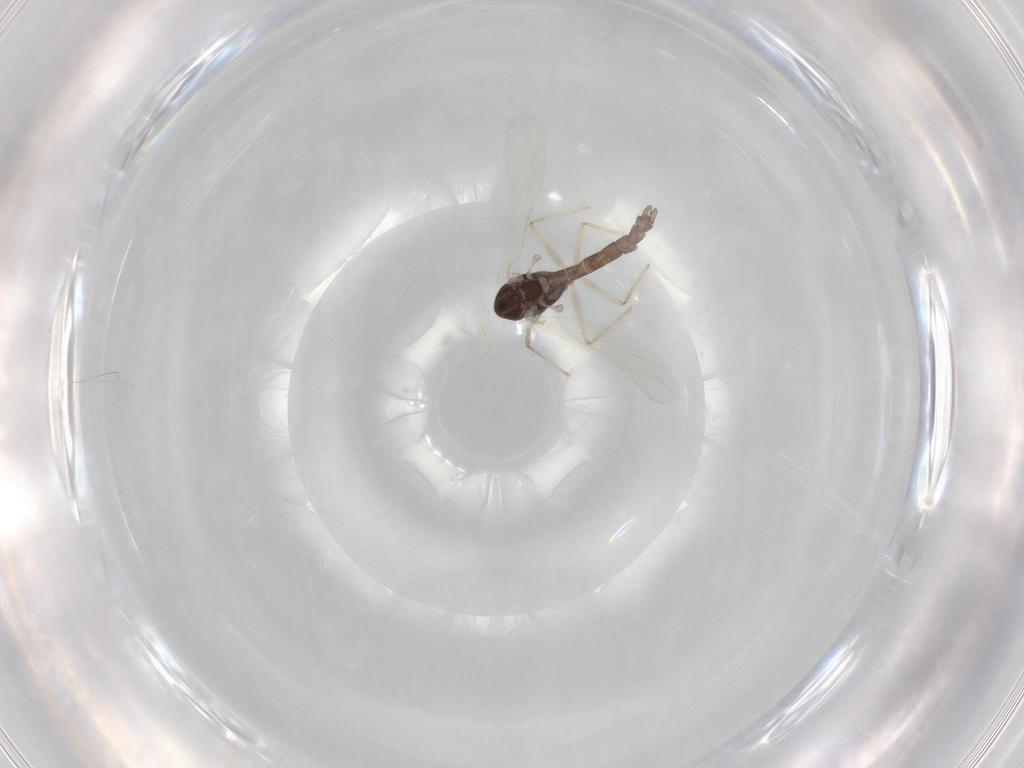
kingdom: Animalia
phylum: Arthropoda
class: Insecta
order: Diptera
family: Chironomidae
